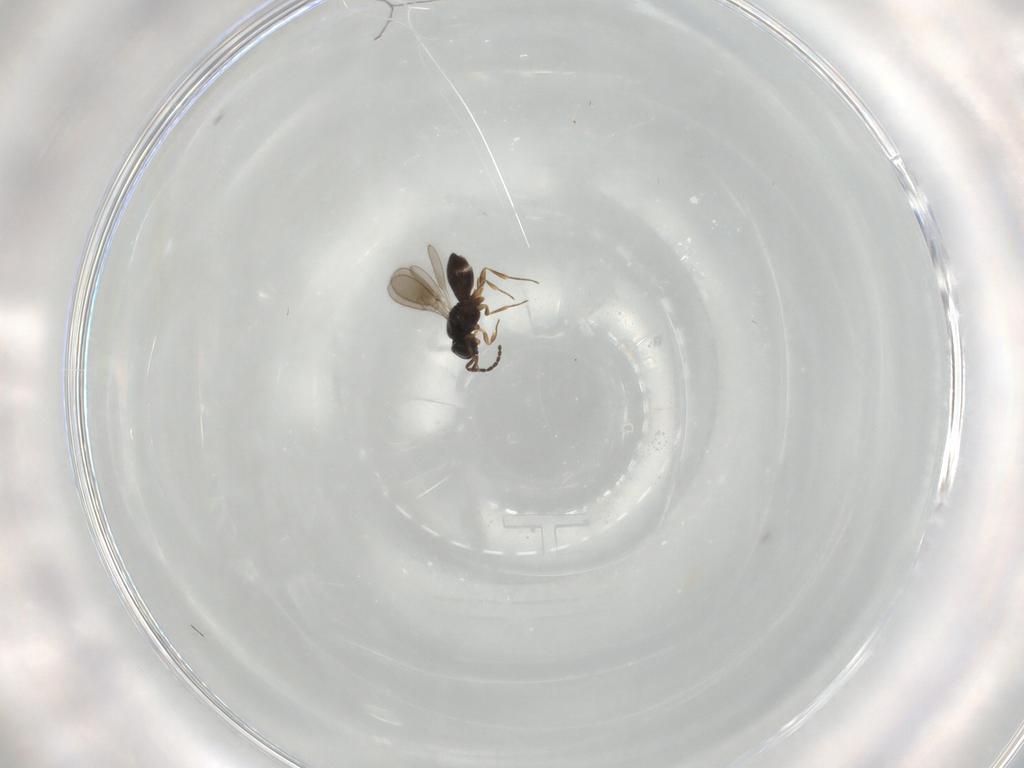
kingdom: Animalia
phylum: Arthropoda
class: Insecta
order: Hymenoptera
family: Scelionidae
